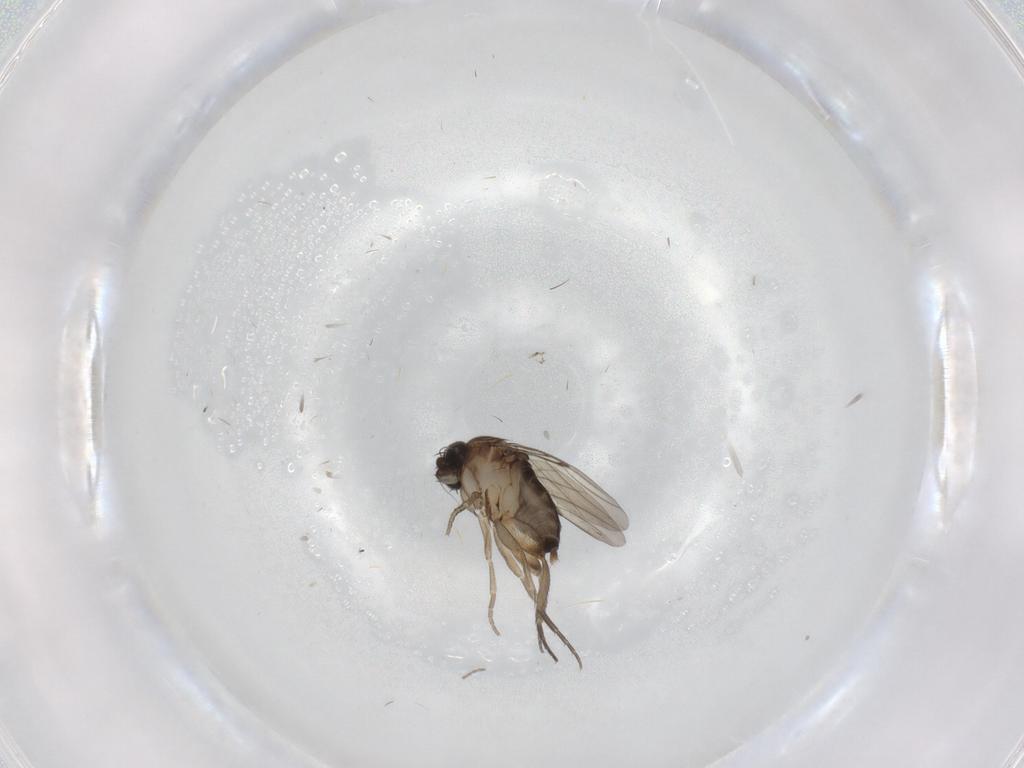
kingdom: Animalia
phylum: Arthropoda
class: Insecta
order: Diptera
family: Phoridae
